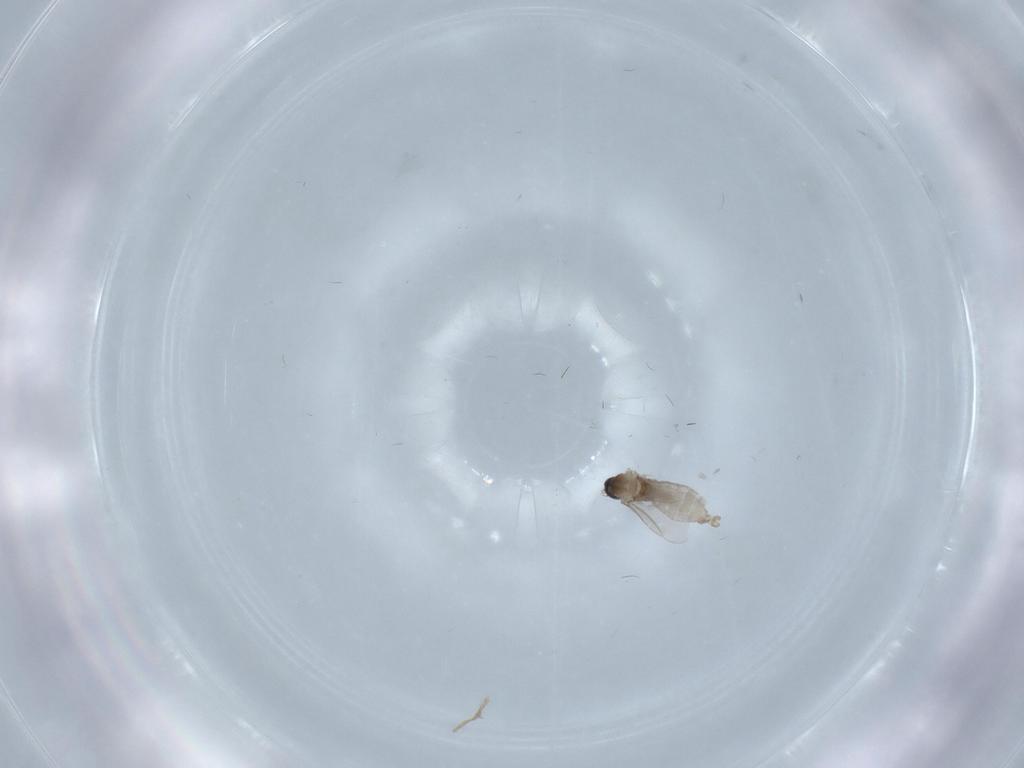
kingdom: Animalia
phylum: Arthropoda
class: Insecta
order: Diptera
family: Cecidomyiidae
